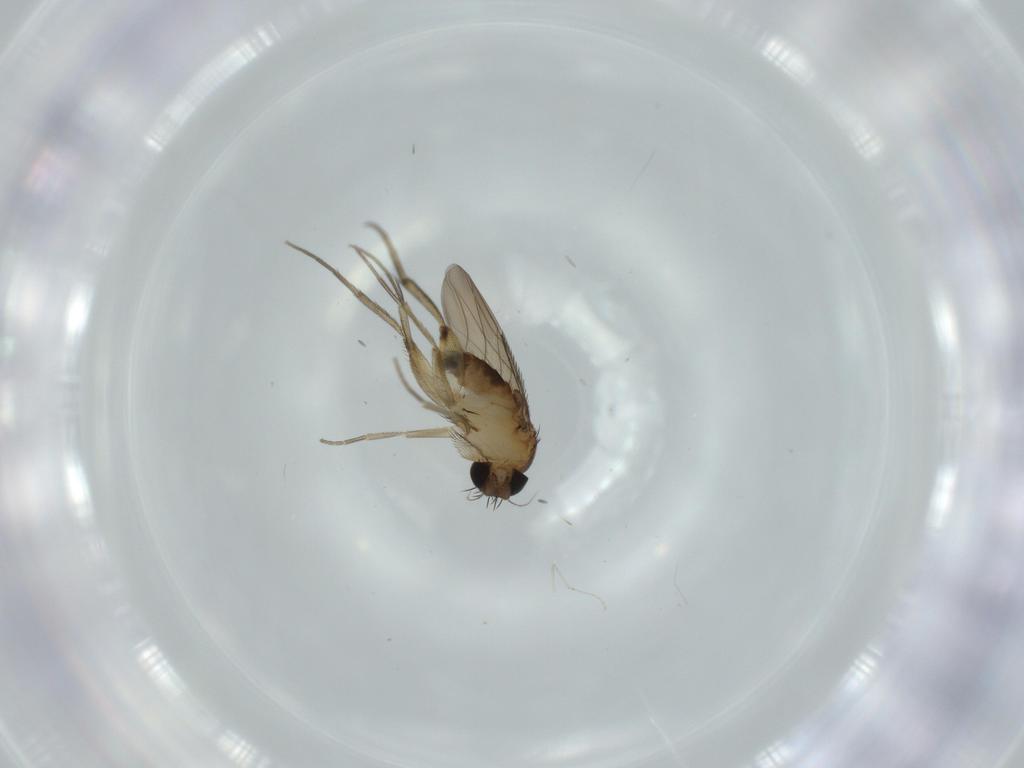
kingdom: Animalia
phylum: Arthropoda
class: Insecta
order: Diptera
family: Phoridae
